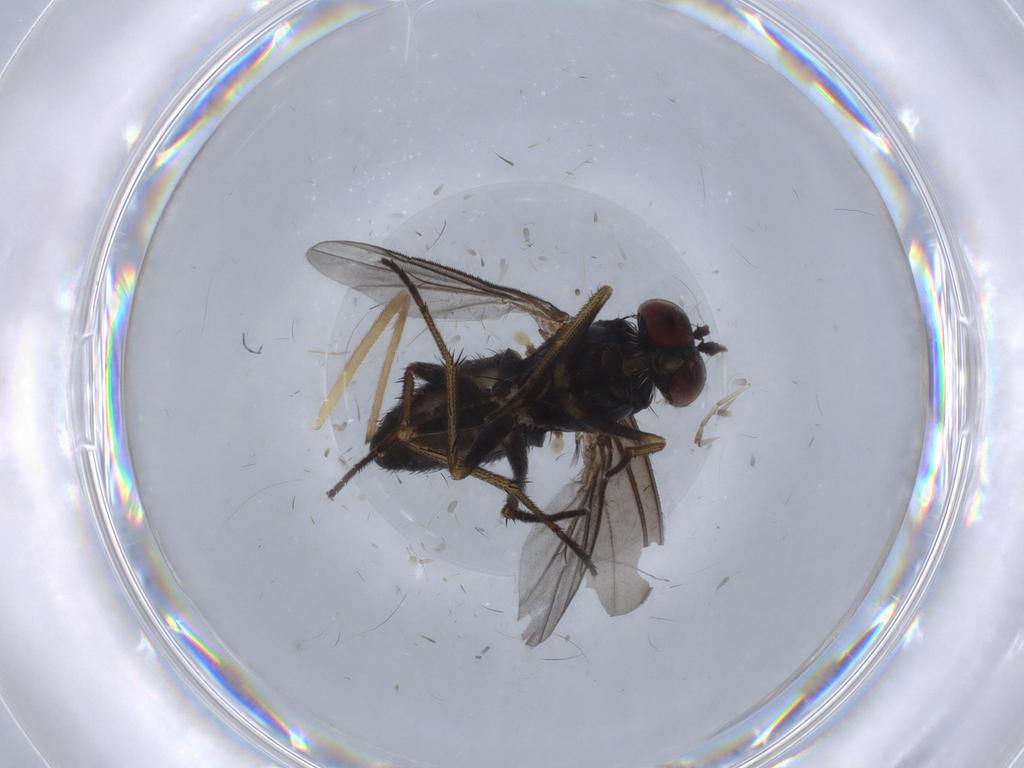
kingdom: Animalia
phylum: Arthropoda
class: Insecta
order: Diptera
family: Dolichopodidae
